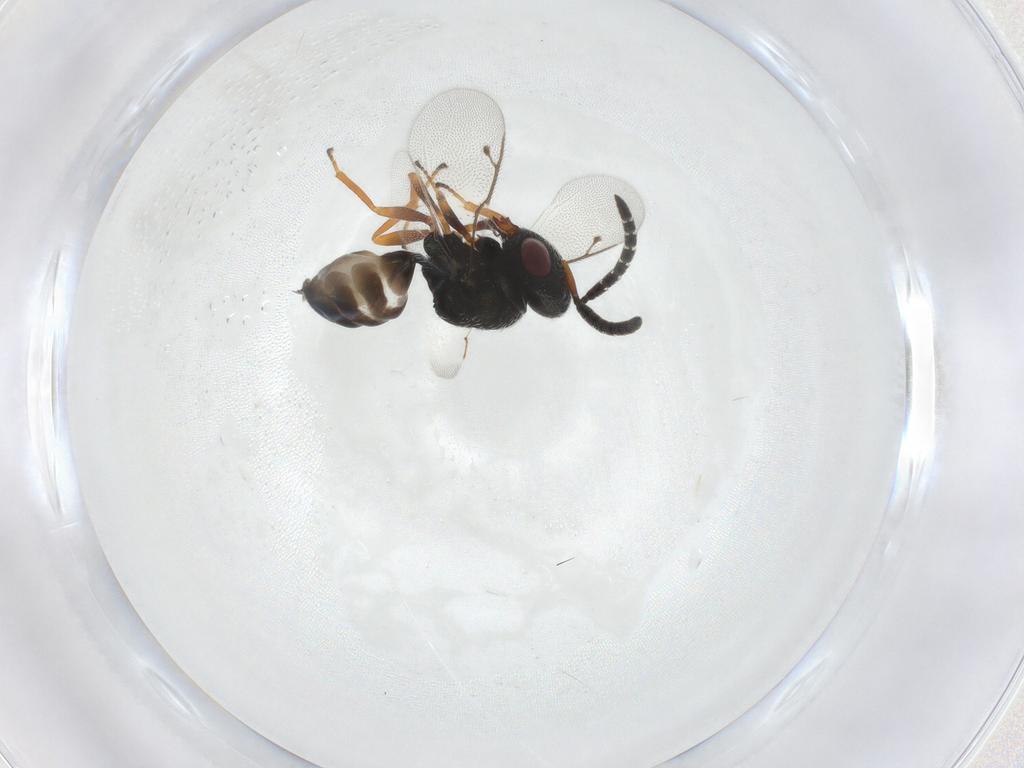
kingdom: Animalia
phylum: Arthropoda
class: Insecta
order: Hymenoptera
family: Pteromalidae
